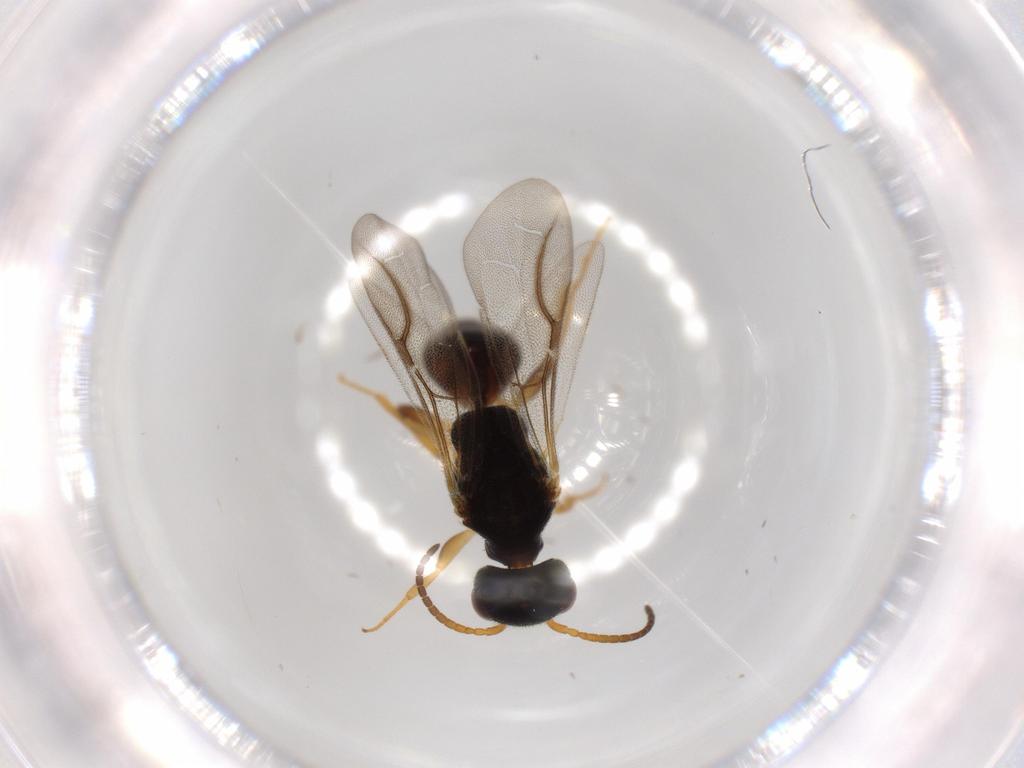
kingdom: Animalia
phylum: Arthropoda
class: Insecta
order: Hymenoptera
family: Bethylidae
